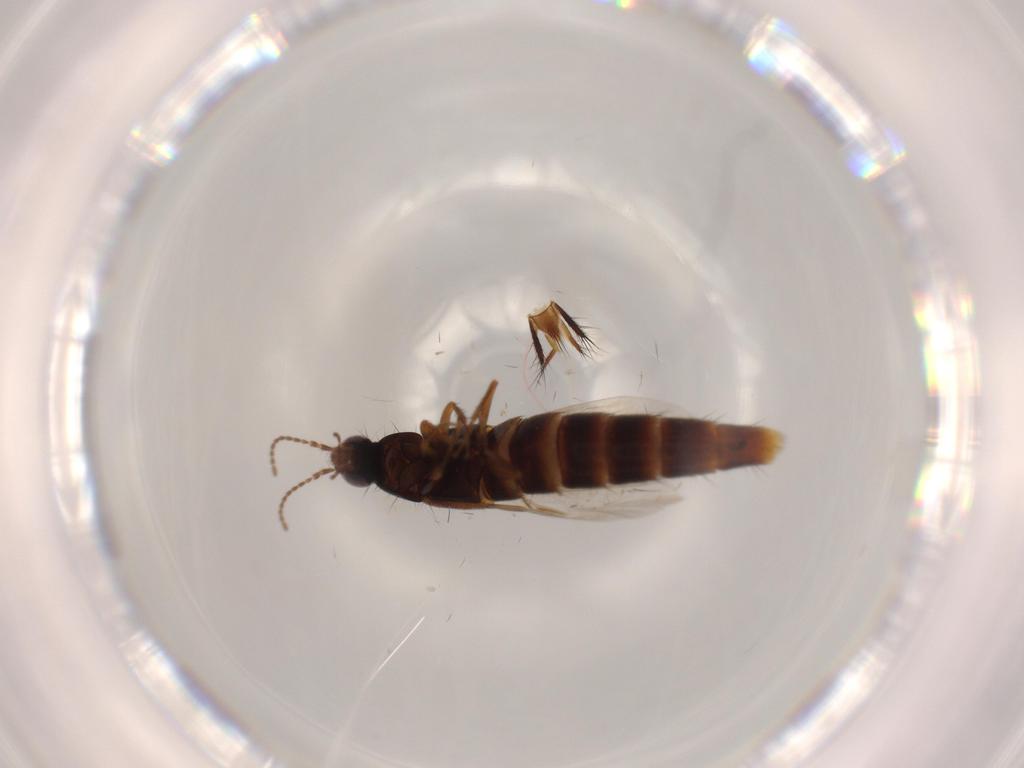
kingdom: Animalia
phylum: Arthropoda
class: Insecta
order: Coleoptera
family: Staphylinidae
